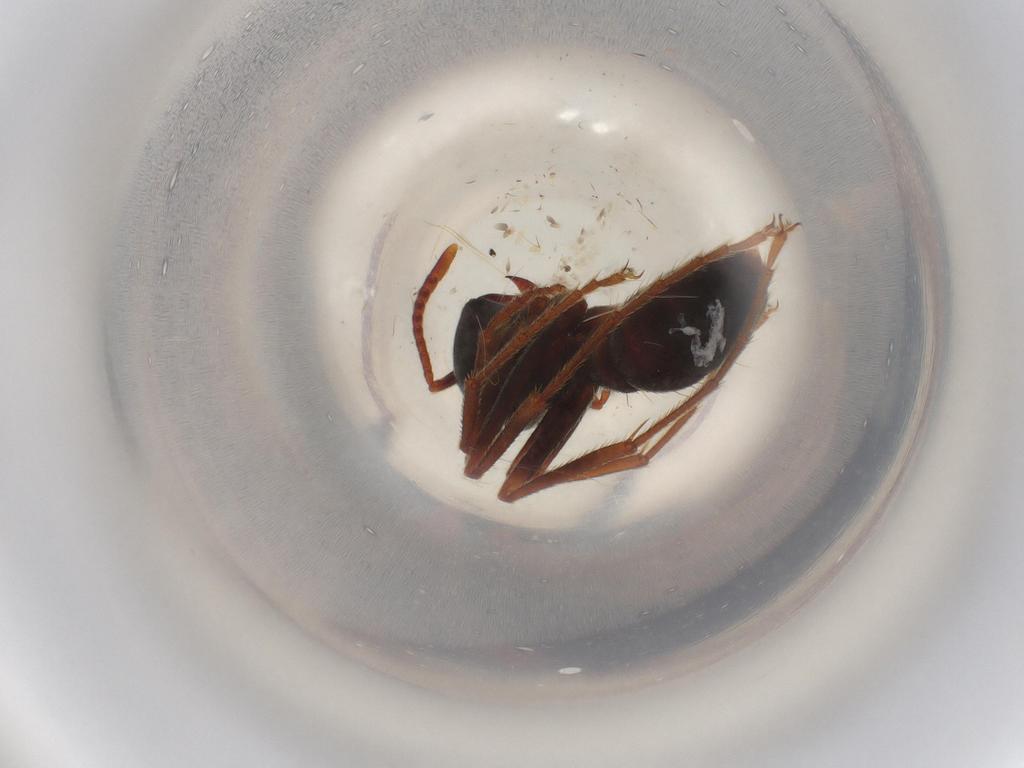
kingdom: Animalia
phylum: Arthropoda
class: Insecta
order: Hymenoptera
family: Formicidae
